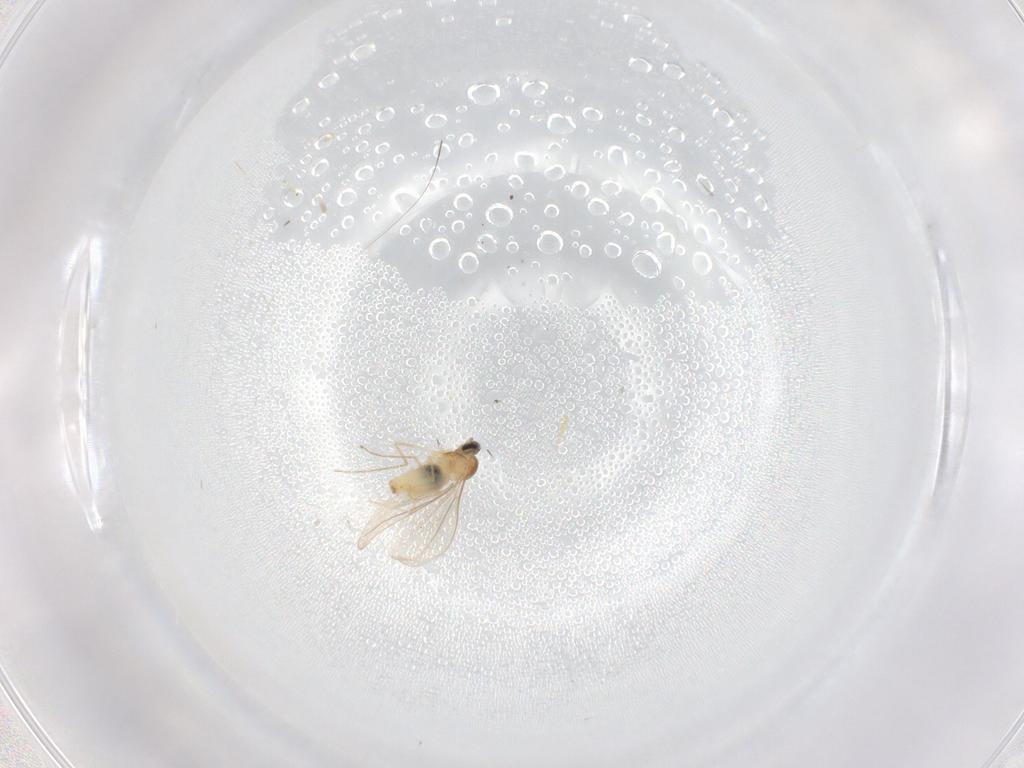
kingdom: Animalia
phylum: Arthropoda
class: Insecta
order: Diptera
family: Cecidomyiidae
